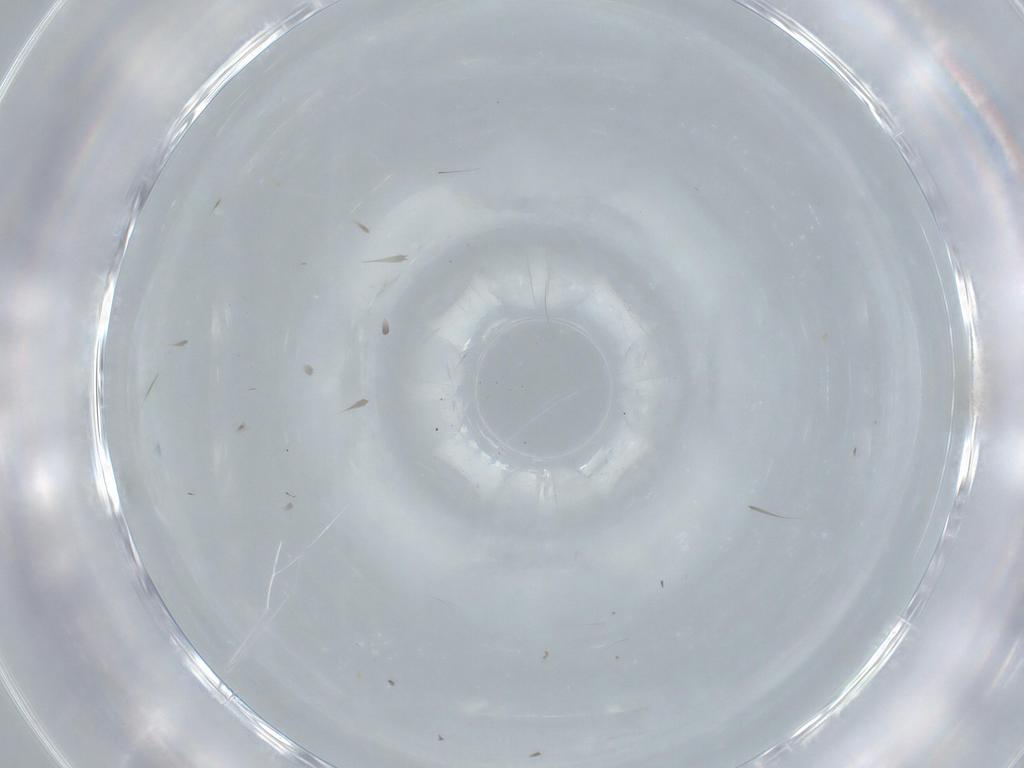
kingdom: Animalia
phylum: Arthropoda
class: Insecta
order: Diptera
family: Cecidomyiidae
